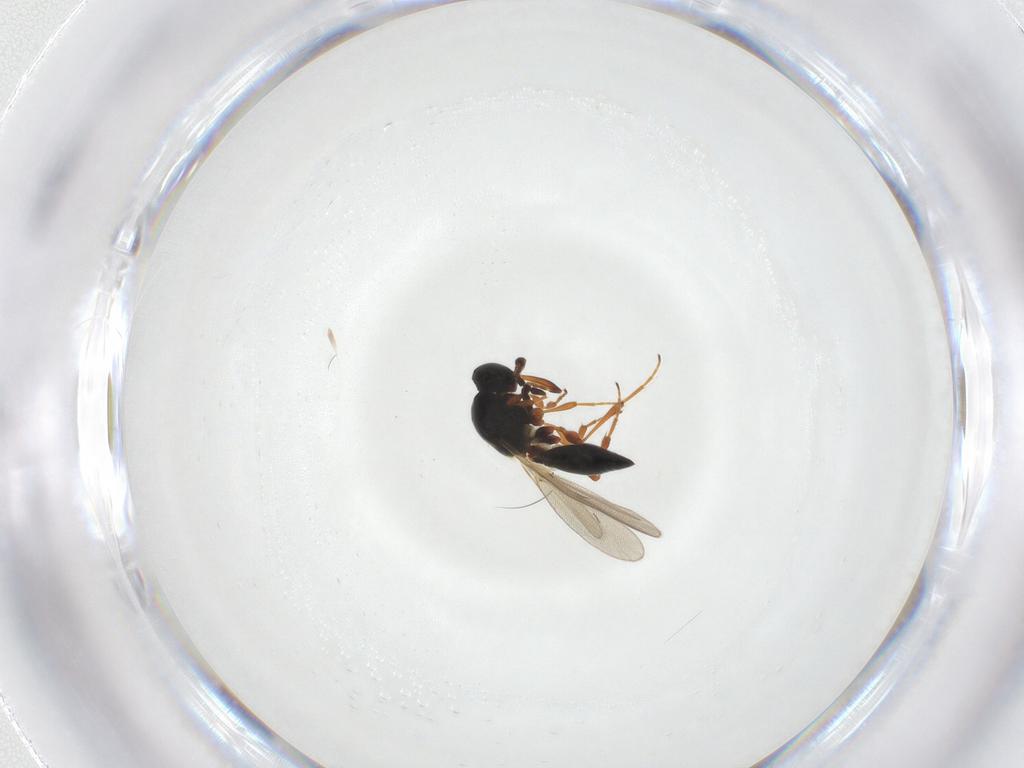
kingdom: Animalia
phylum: Arthropoda
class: Insecta
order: Hymenoptera
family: Platygastridae
